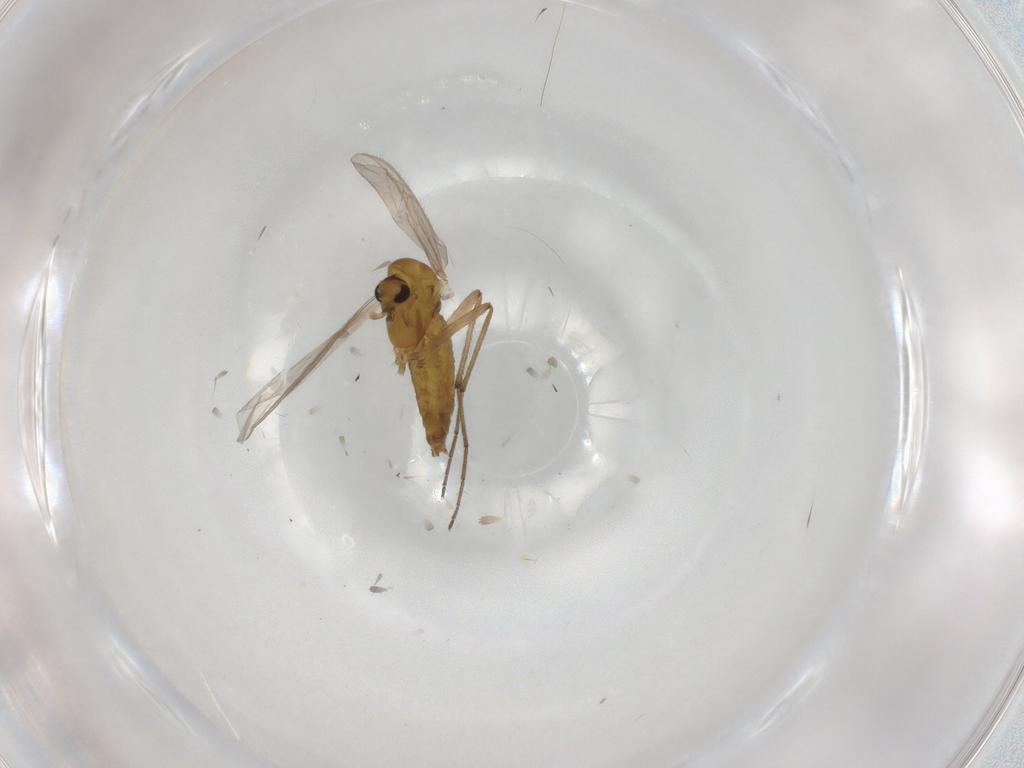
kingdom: Animalia
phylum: Arthropoda
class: Insecta
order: Diptera
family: Chironomidae
